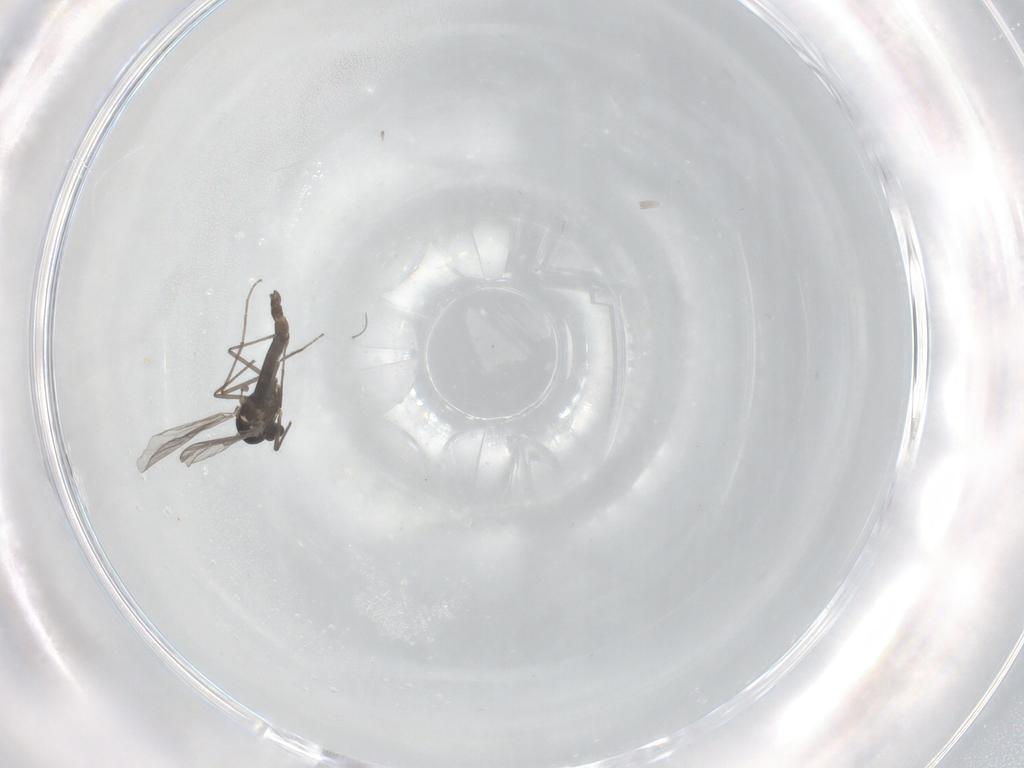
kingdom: Animalia
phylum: Arthropoda
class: Insecta
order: Diptera
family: Chironomidae
